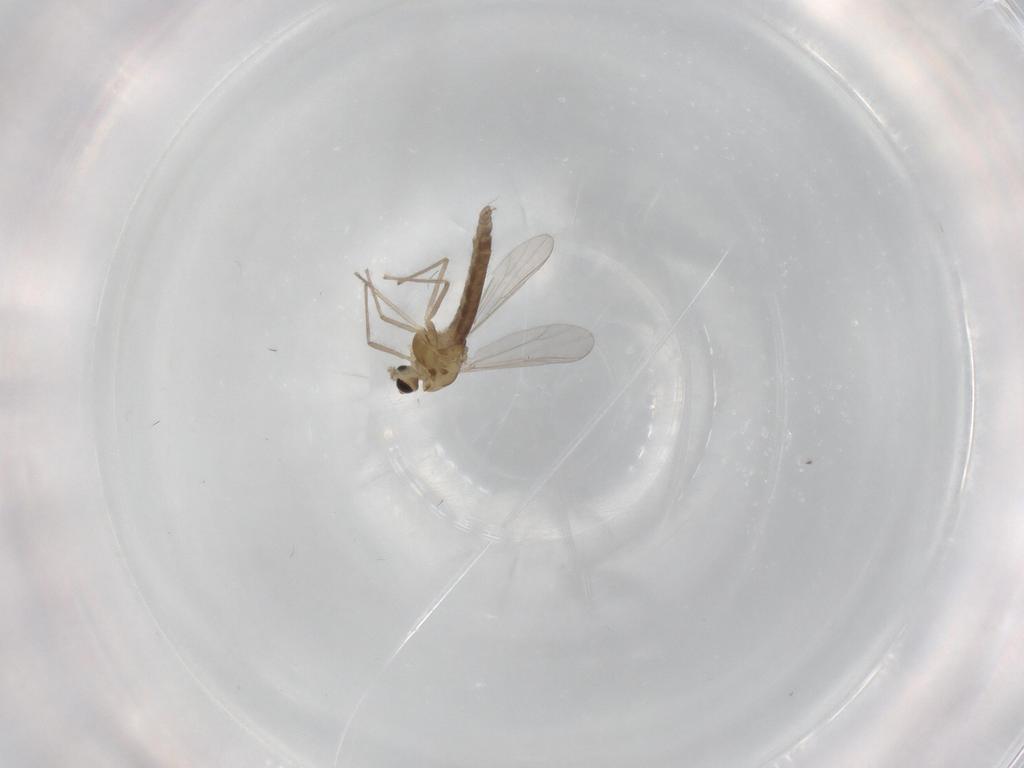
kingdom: Animalia
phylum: Arthropoda
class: Insecta
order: Diptera
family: Chironomidae
